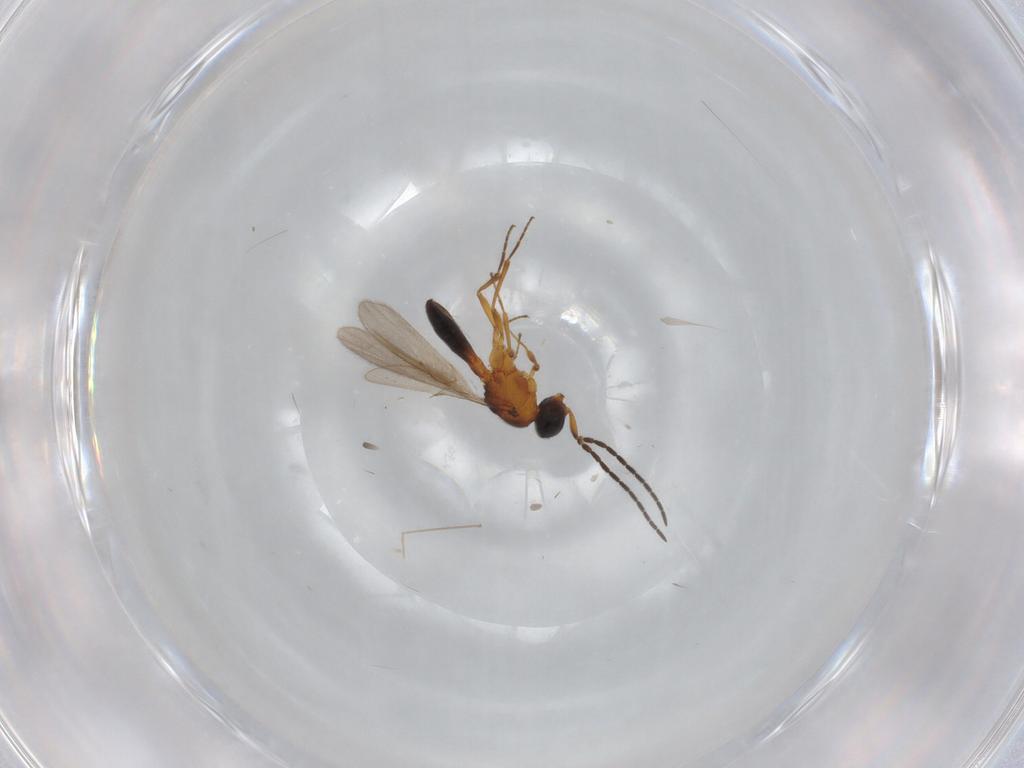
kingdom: Animalia
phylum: Arthropoda
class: Insecta
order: Hymenoptera
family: Scelionidae
